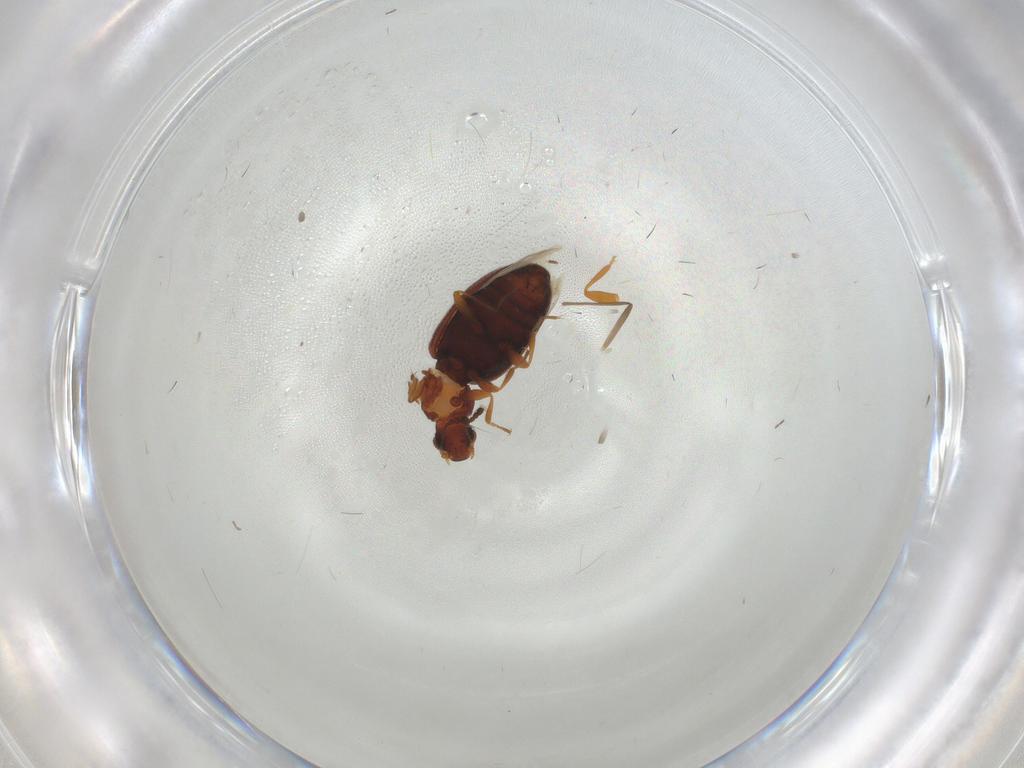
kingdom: Animalia
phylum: Arthropoda
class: Insecta
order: Coleoptera
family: Latridiidae
